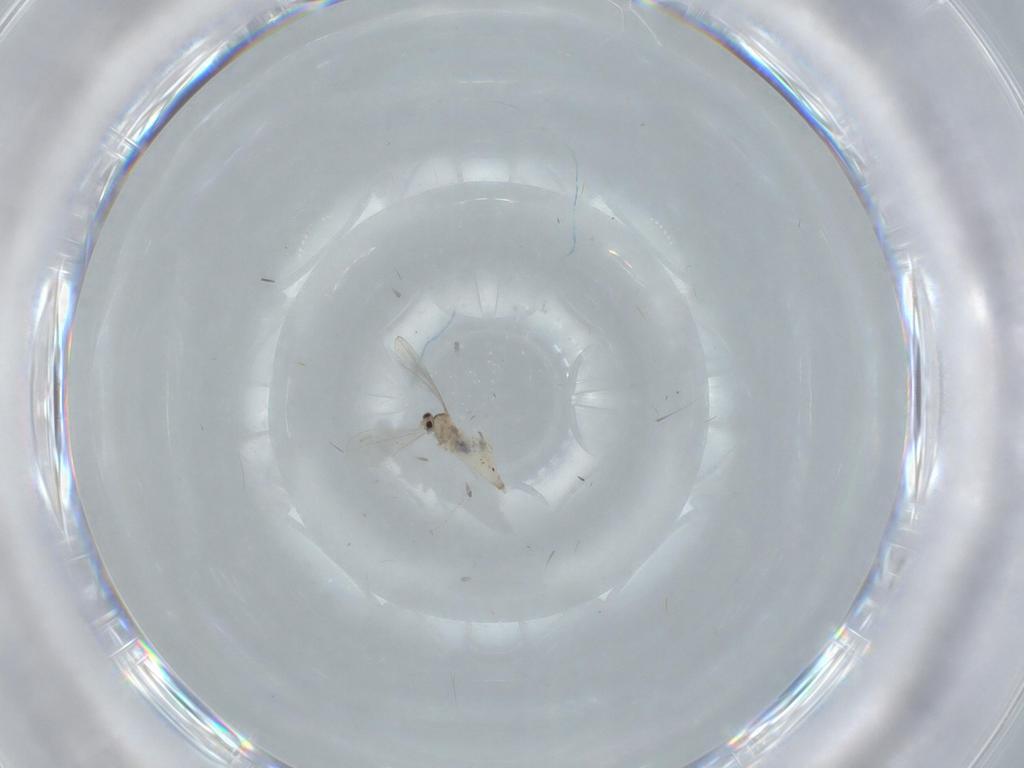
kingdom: Animalia
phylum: Arthropoda
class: Insecta
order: Diptera
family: Cecidomyiidae
